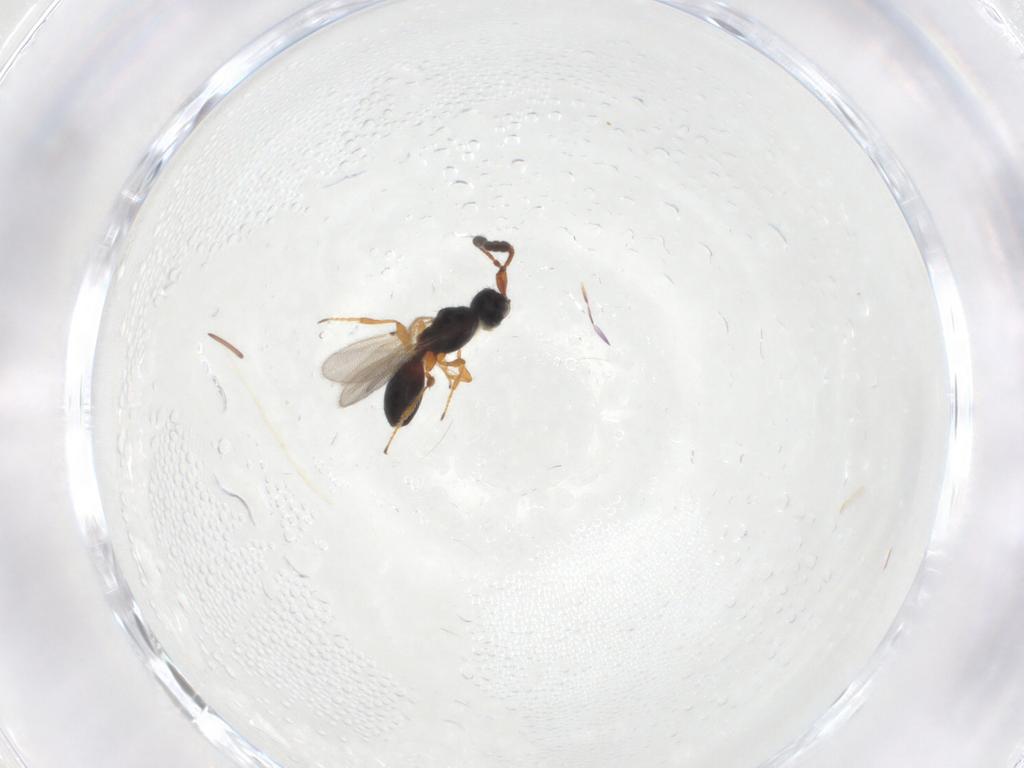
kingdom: Animalia
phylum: Arthropoda
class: Insecta
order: Hymenoptera
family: Diapriidae
